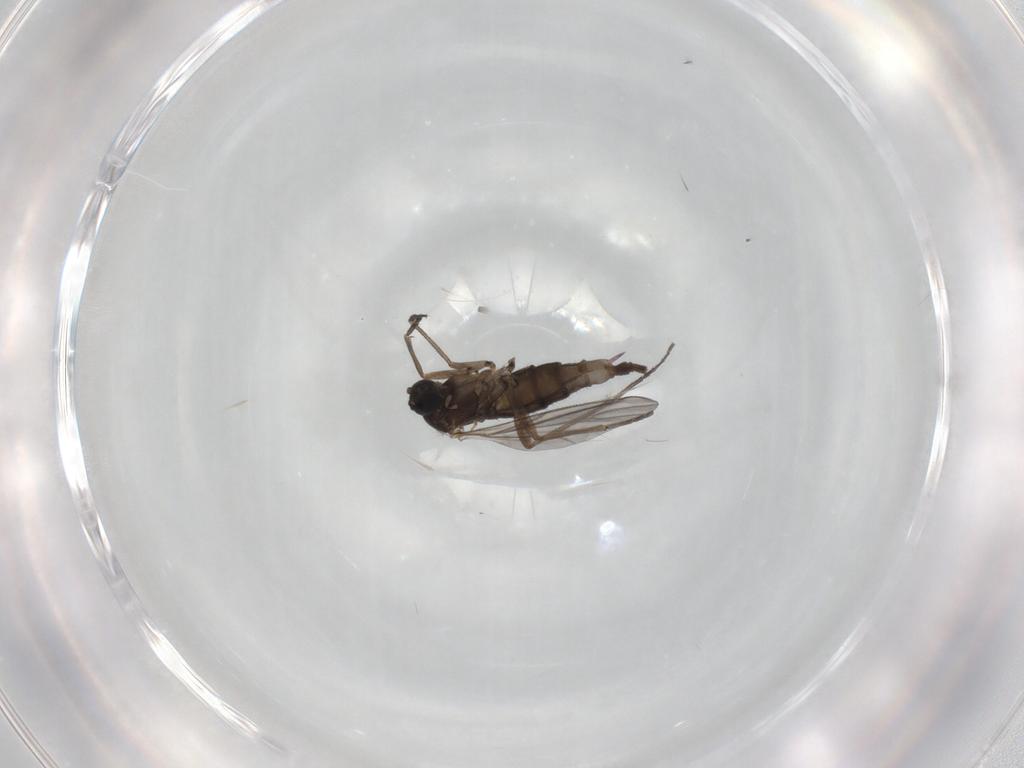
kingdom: Animalia
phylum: Arthropoda
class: Insecta
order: Diptera
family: Sciaridae
